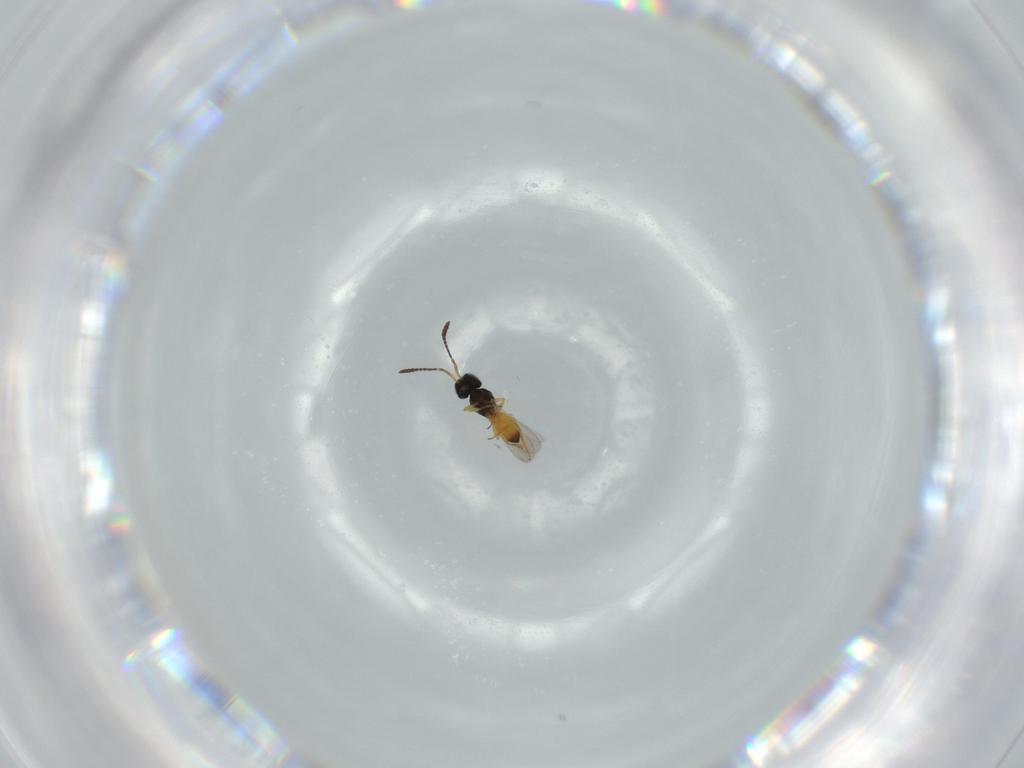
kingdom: Animalia
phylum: Arthropoda
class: Insecta
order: Hymenoptera
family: Scelionidae
